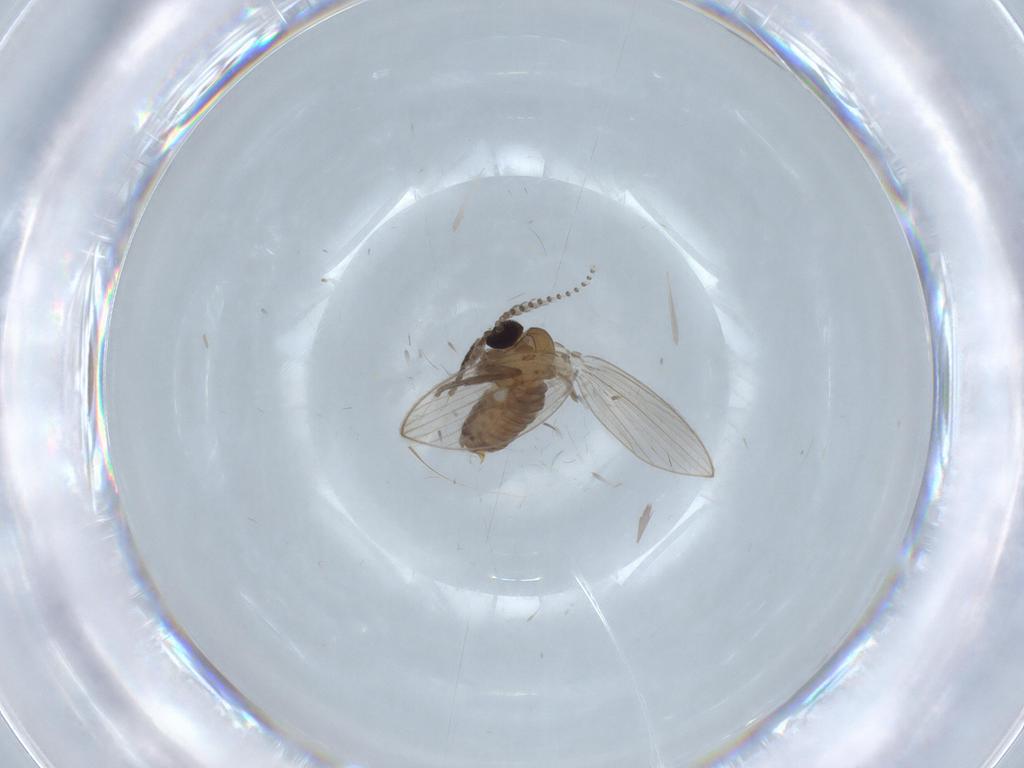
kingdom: Animalia
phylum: Arthropoda
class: Insecta
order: Diptera
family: Psychodidae
